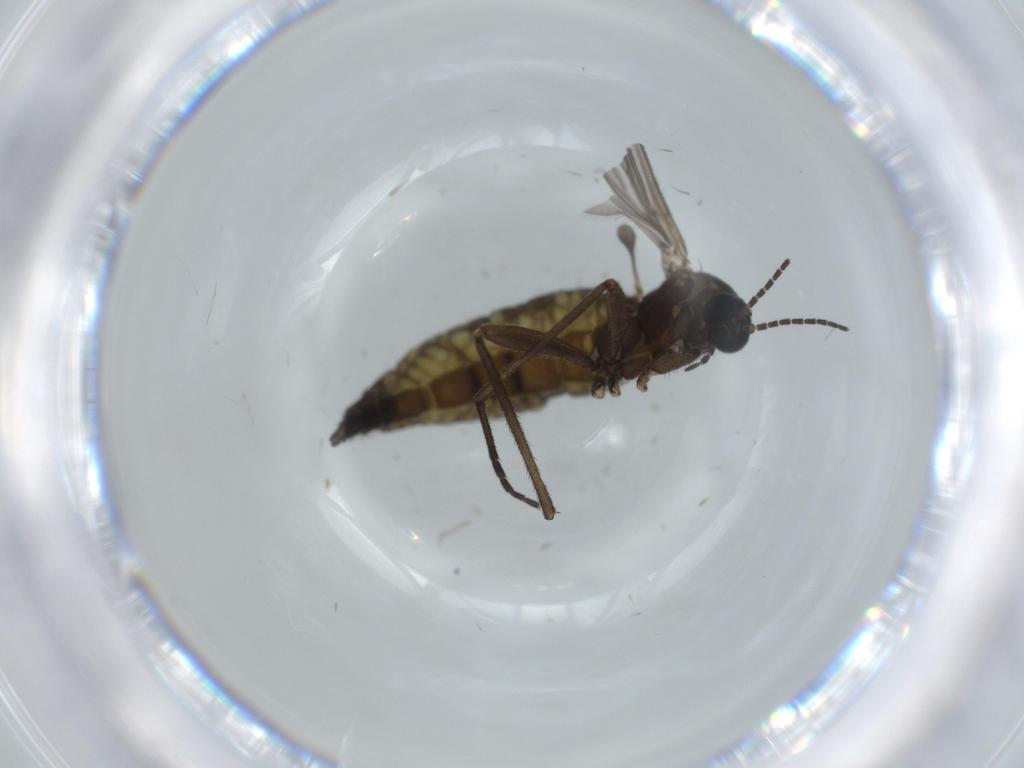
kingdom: Animalia
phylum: Arthropoda
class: Insecta
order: Diptera
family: Sciaridae
